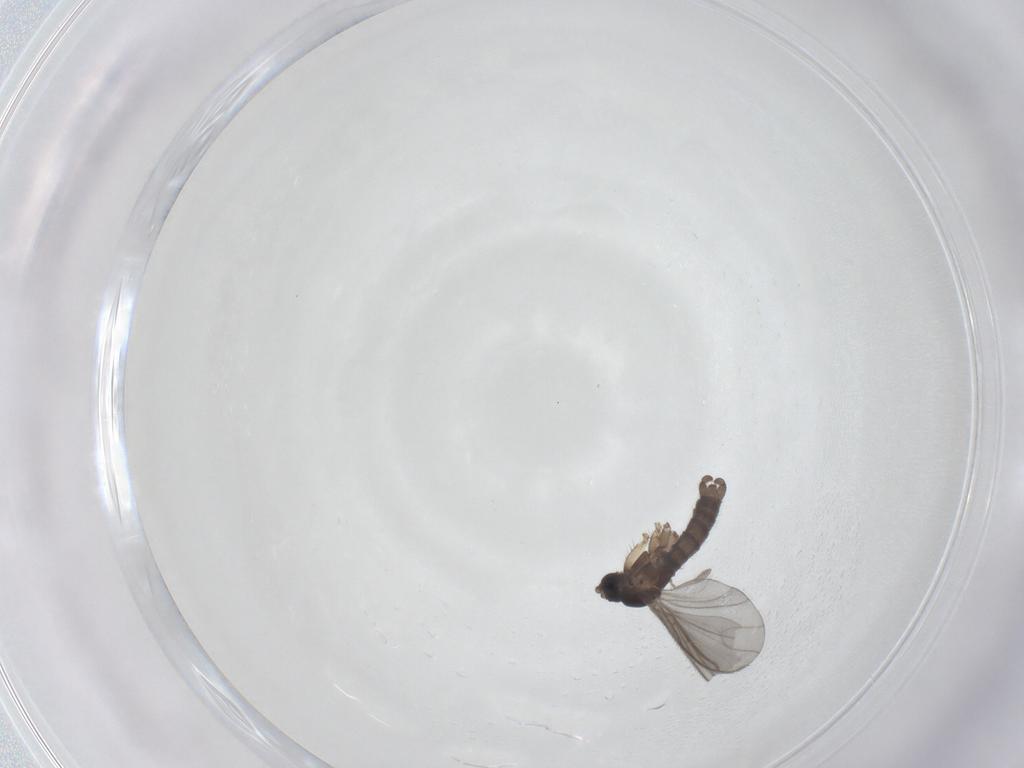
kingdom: Animalia
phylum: Arthropoda
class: Insecta
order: Diptera
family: Sciaridae
